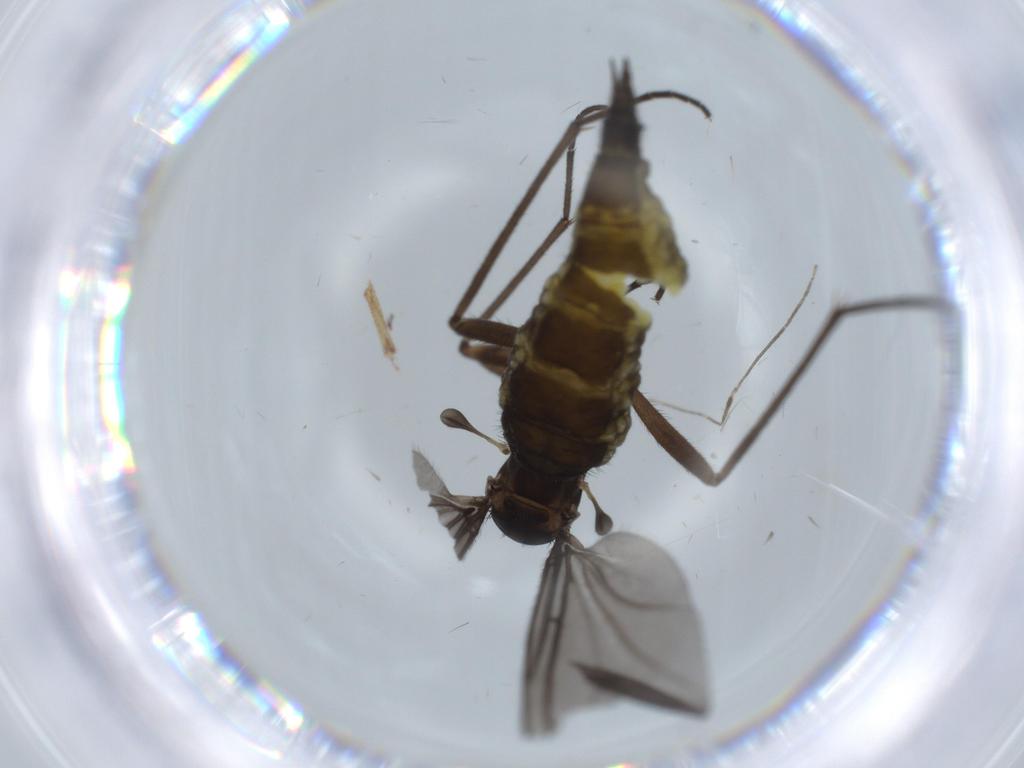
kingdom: Animalia
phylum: Arthropoda
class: Insecta
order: Diptera
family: Sciaridae
